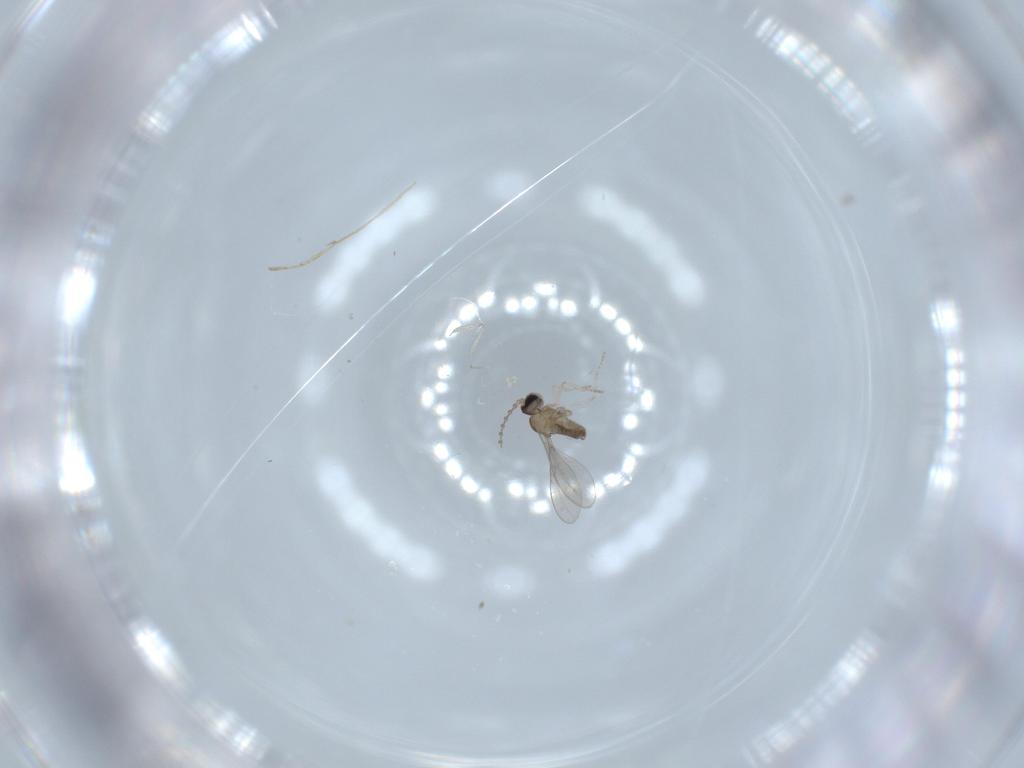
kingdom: Animalia
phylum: Arthropoda
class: Insecta
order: Diptera
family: Cecidomyiidae
